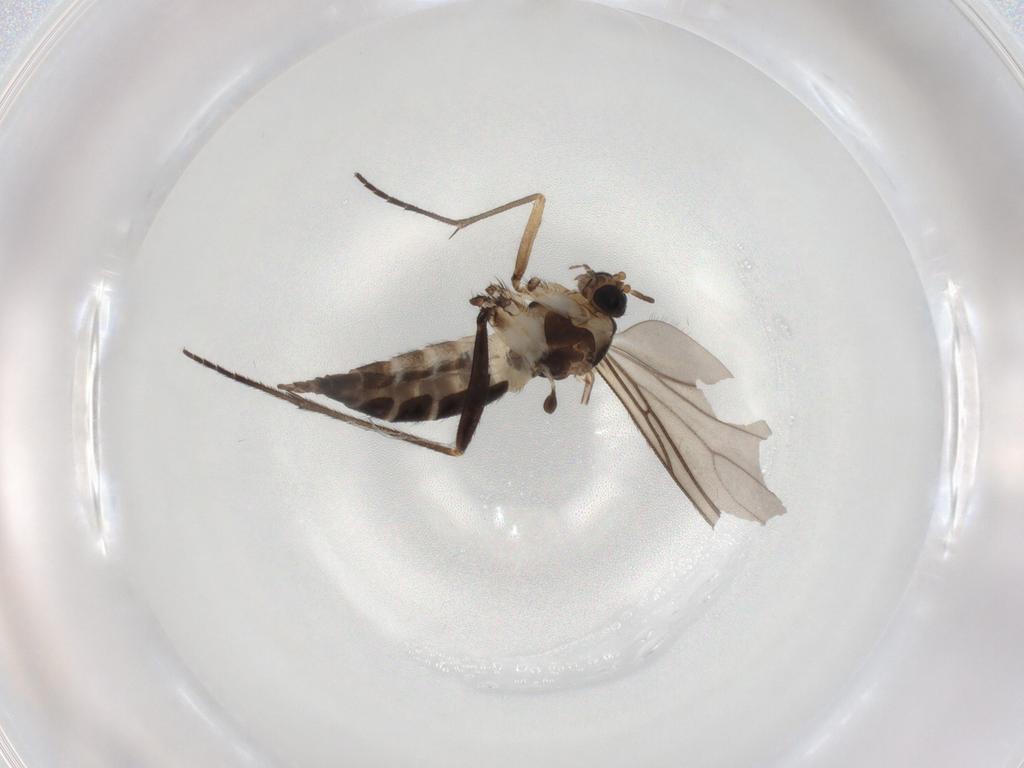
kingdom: Animalia
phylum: Arthropoda
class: Insecta
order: Diptera
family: Sciaridae
